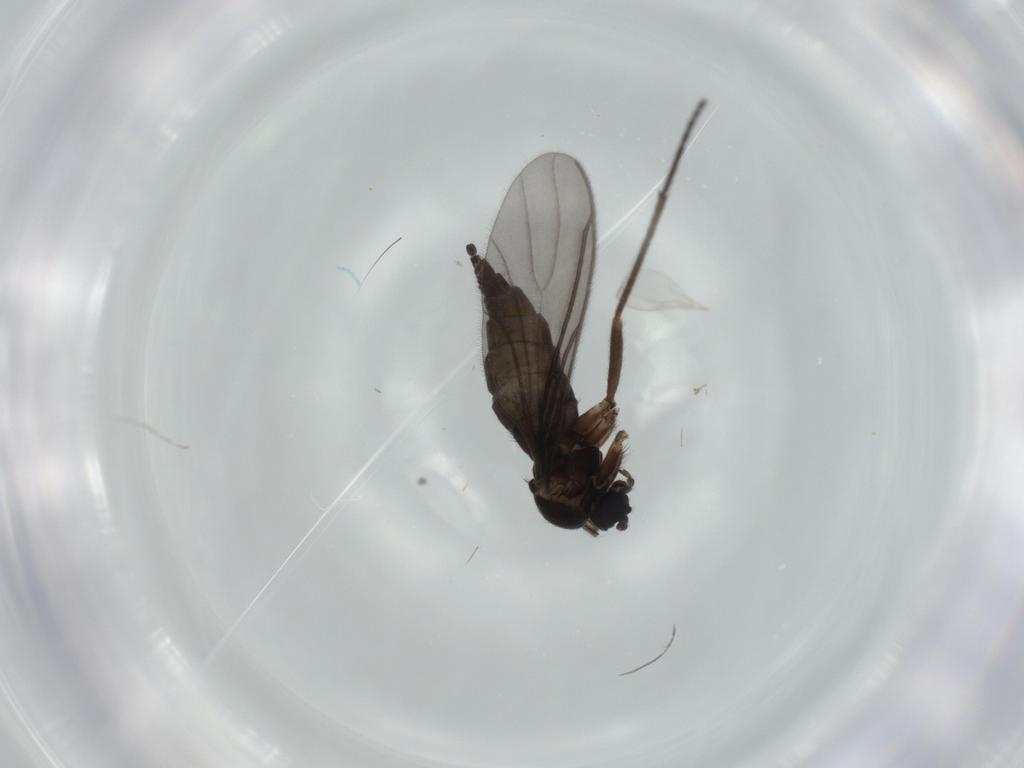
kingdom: Animalia
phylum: Arthropoda
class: Insecta
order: Diptera
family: Sciaridae
